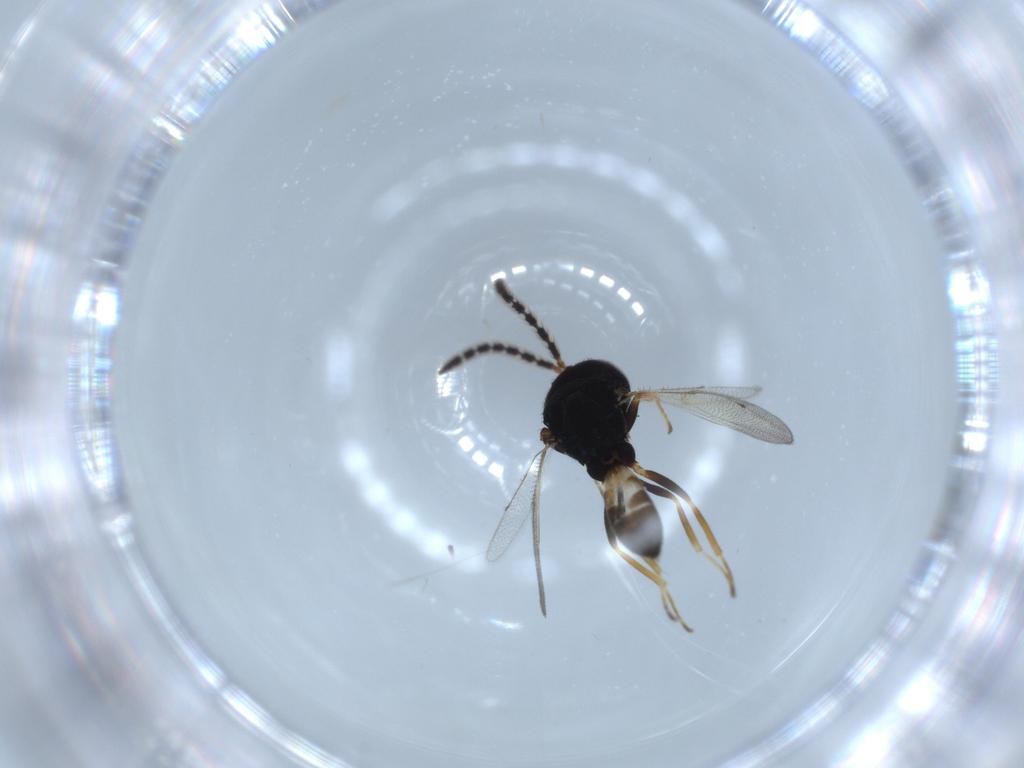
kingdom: Animalia
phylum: Arthropoda
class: Insecta
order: Hymenoptera
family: Pteromalidae
